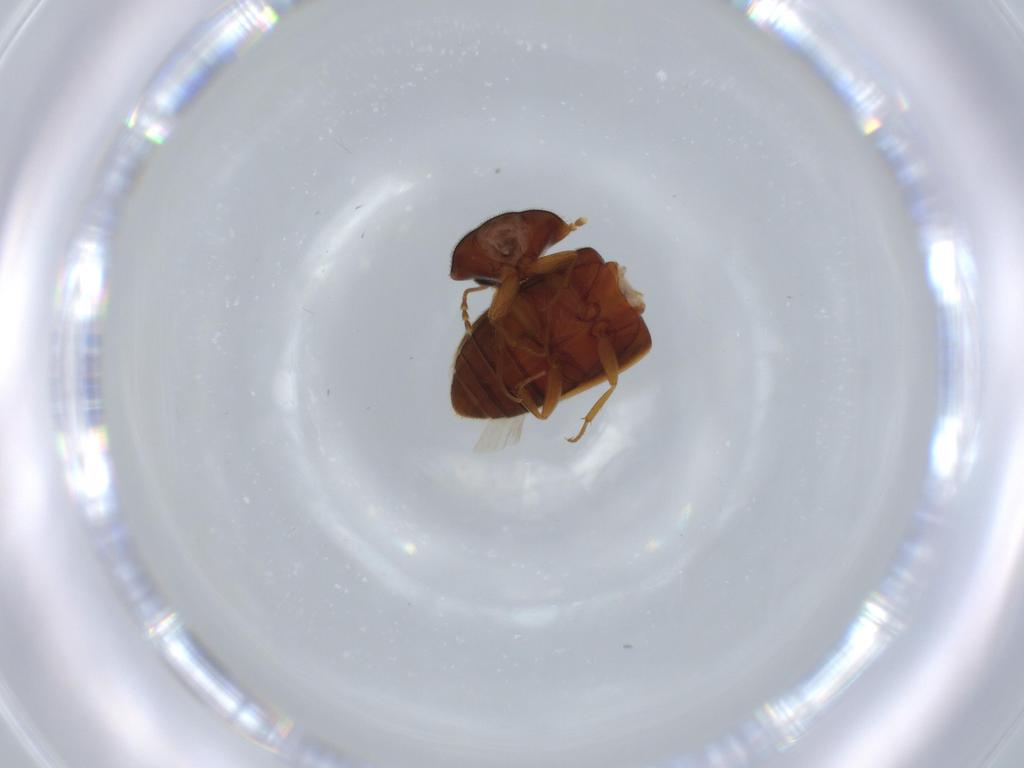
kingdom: Animalia
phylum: Arthropoda
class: Insecta
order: Coleoptera
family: Mycetophagidae
